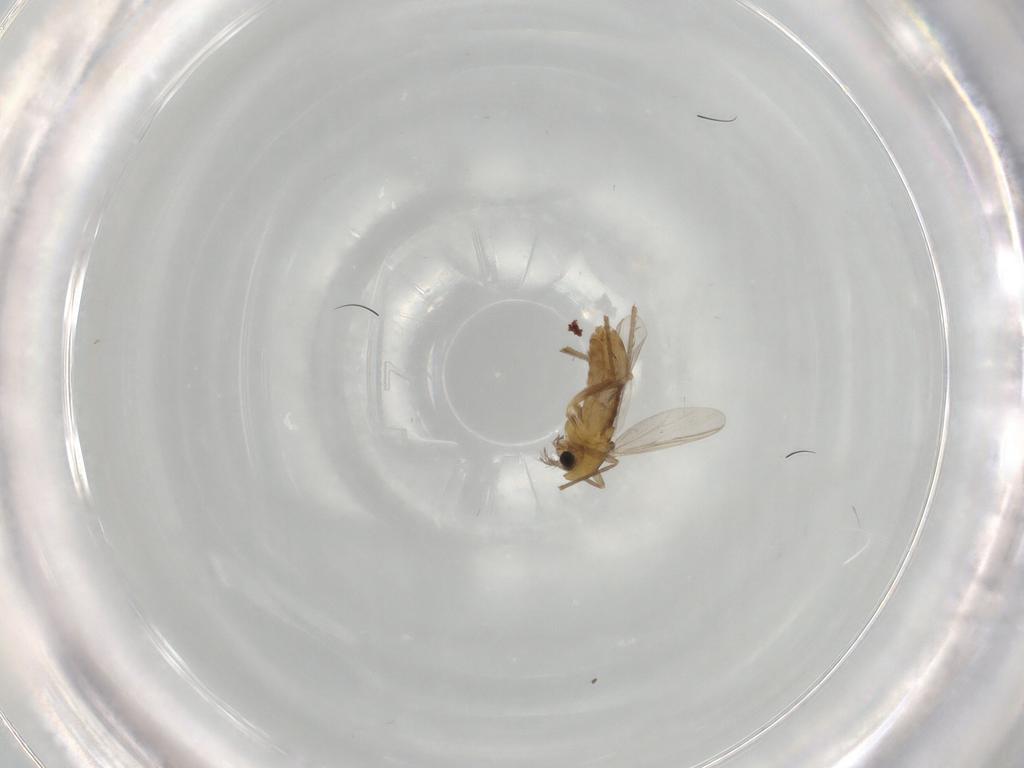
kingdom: Animalia
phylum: Arthropoda
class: Insecta
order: Diptera
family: Chironomidae
